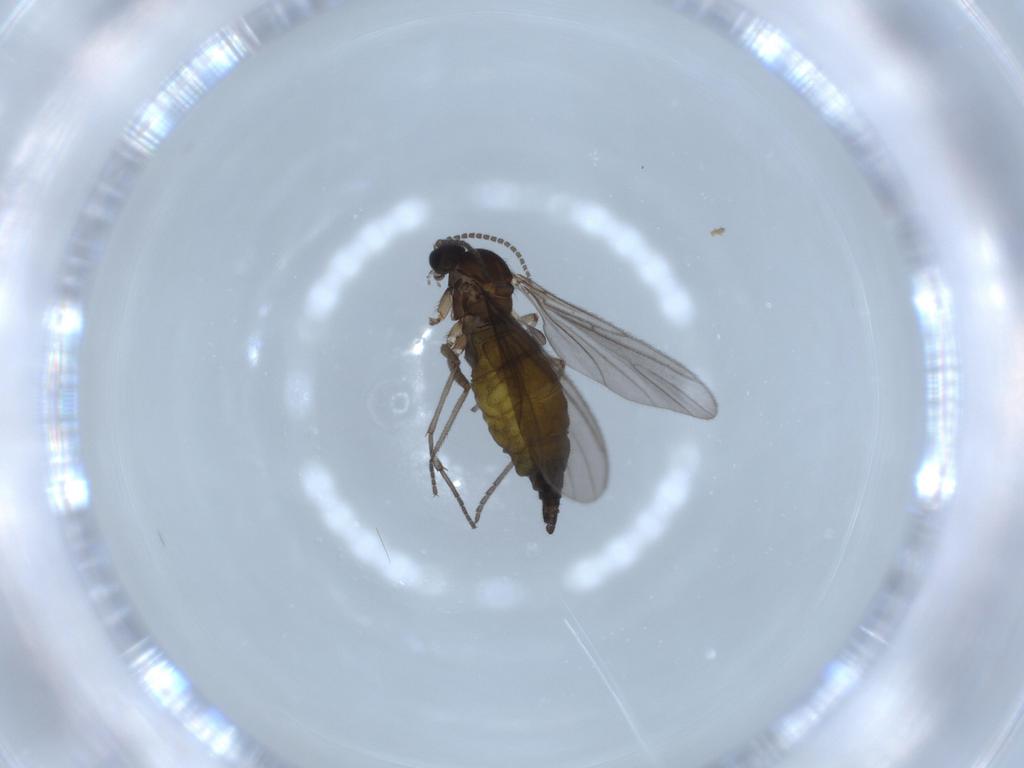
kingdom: Animalia
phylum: Arthropoda
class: Insecta
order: Diptera
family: Sciaridae
